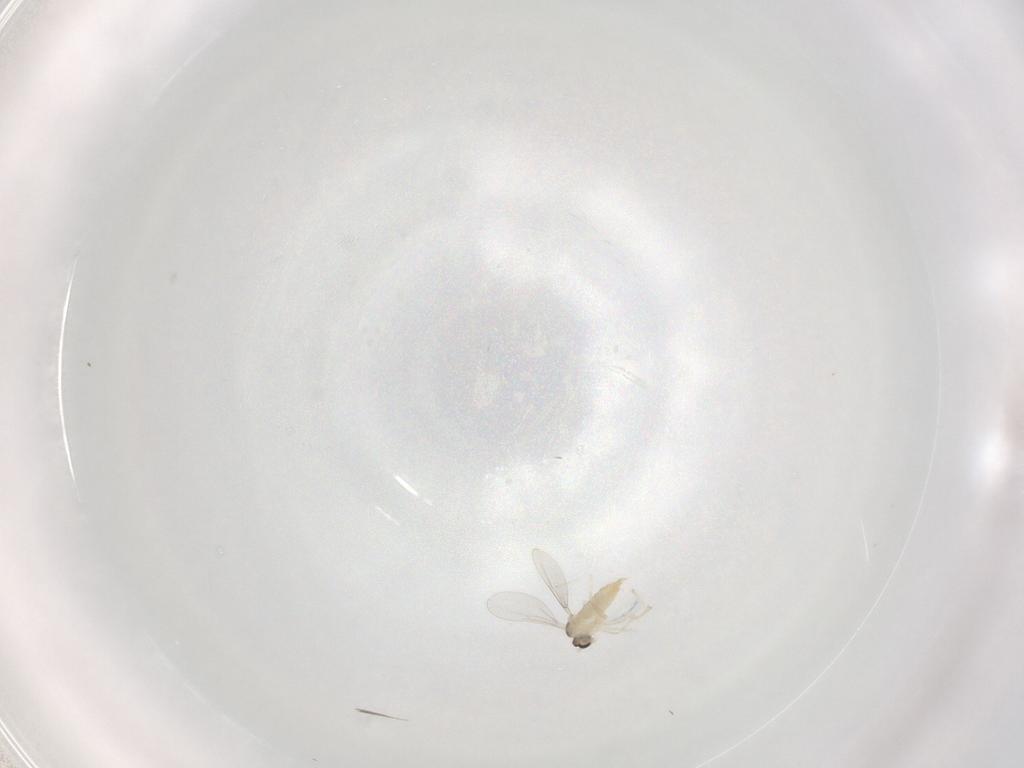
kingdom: Animalia
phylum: Arthropoda
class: Insecta
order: Diptera
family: Cecidomyiidae
